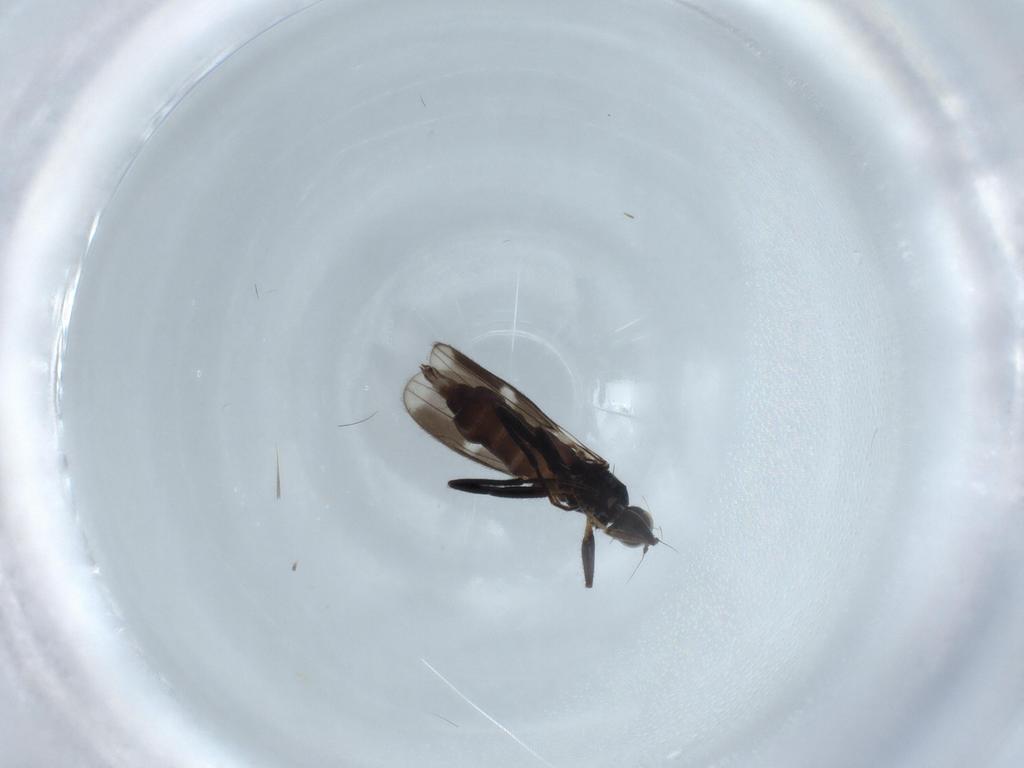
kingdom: Animalia
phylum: Arthropoda
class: Insecta
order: Diptera
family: Hybotidae
